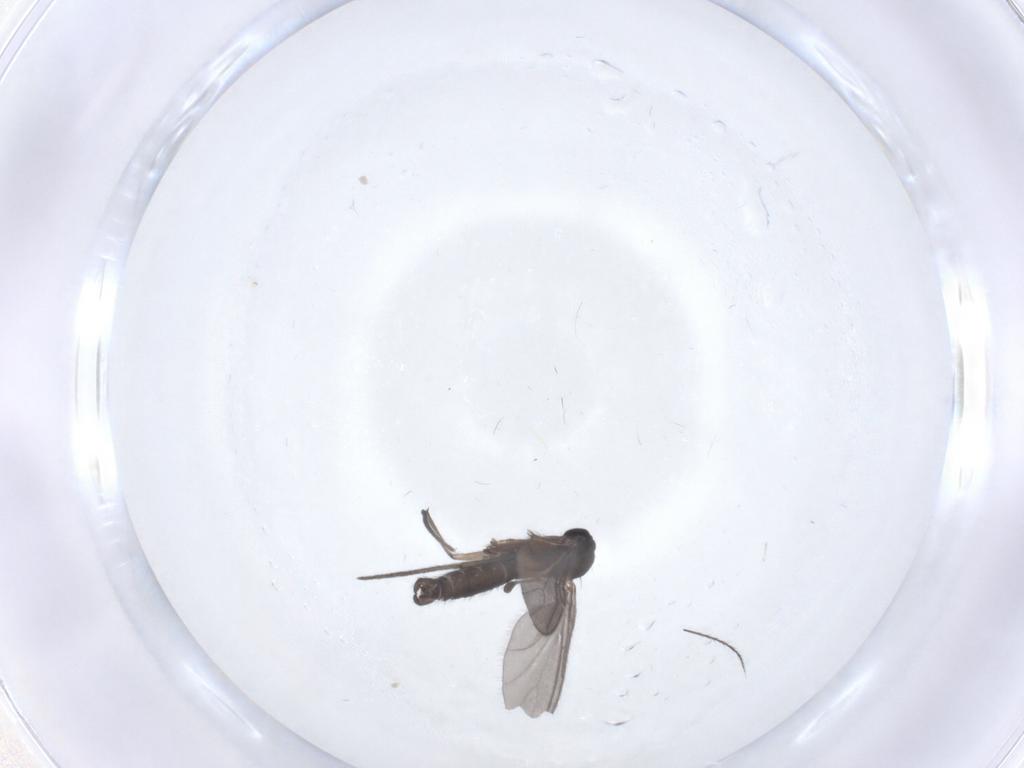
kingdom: Animalia
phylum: Arthropoda
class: Insecta
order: Diptera
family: Sciaridae
